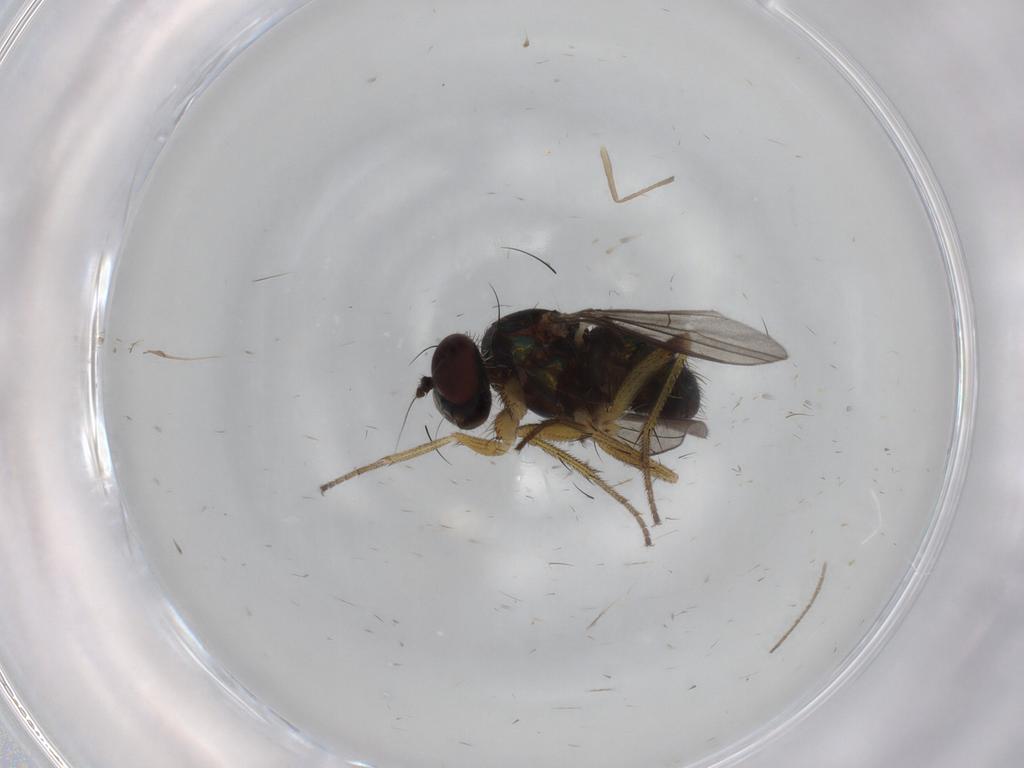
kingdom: Animalia
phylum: Arthropoda
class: Insecta
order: Diptera
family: Dolichopodidae
